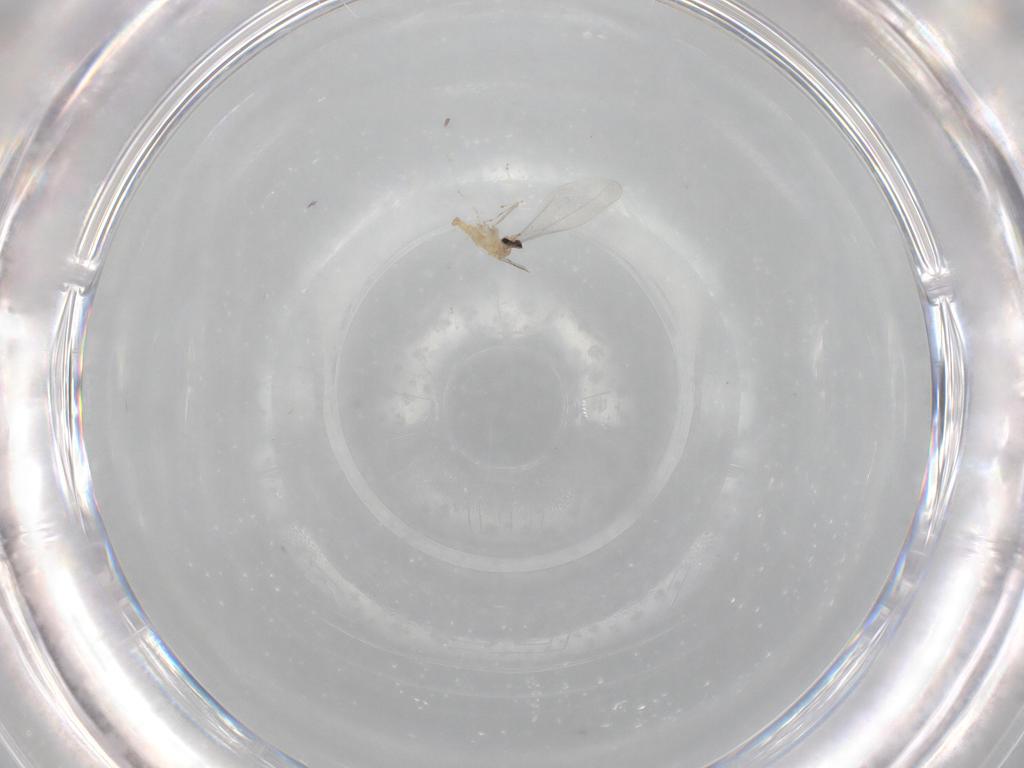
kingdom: Animalia
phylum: Arthropoda
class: Insecta
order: Diptera
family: Cecidomyiidae
